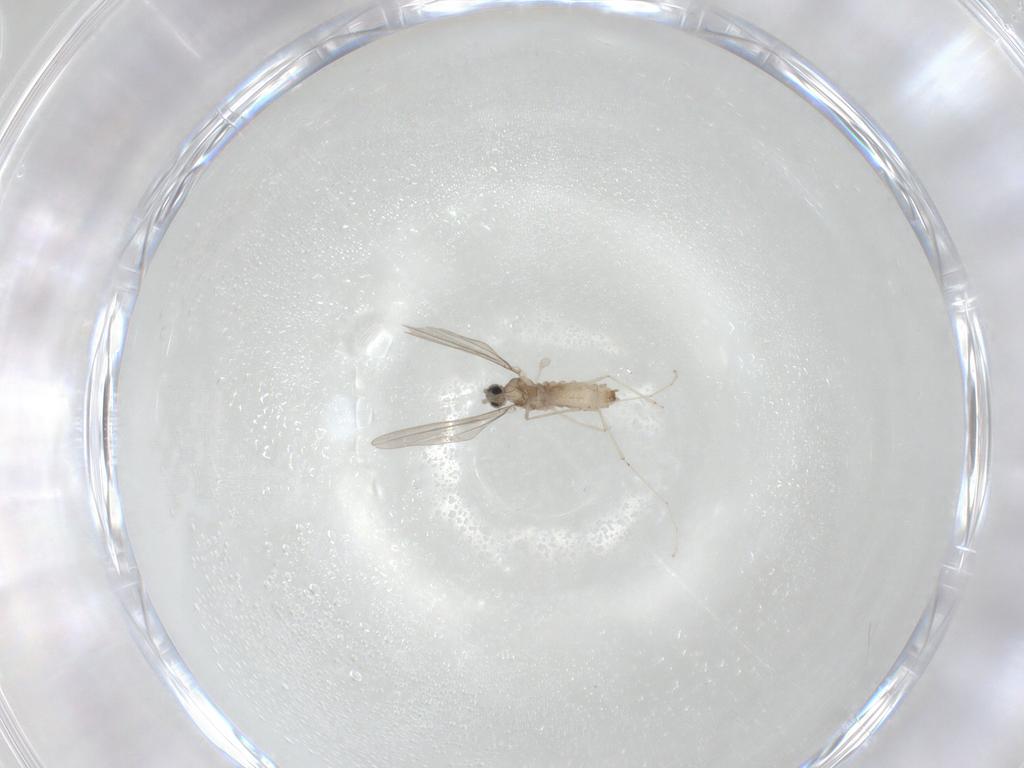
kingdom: Animalia
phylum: Arthropoda
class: Insecta
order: Diptera
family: Cecidomyiidae
